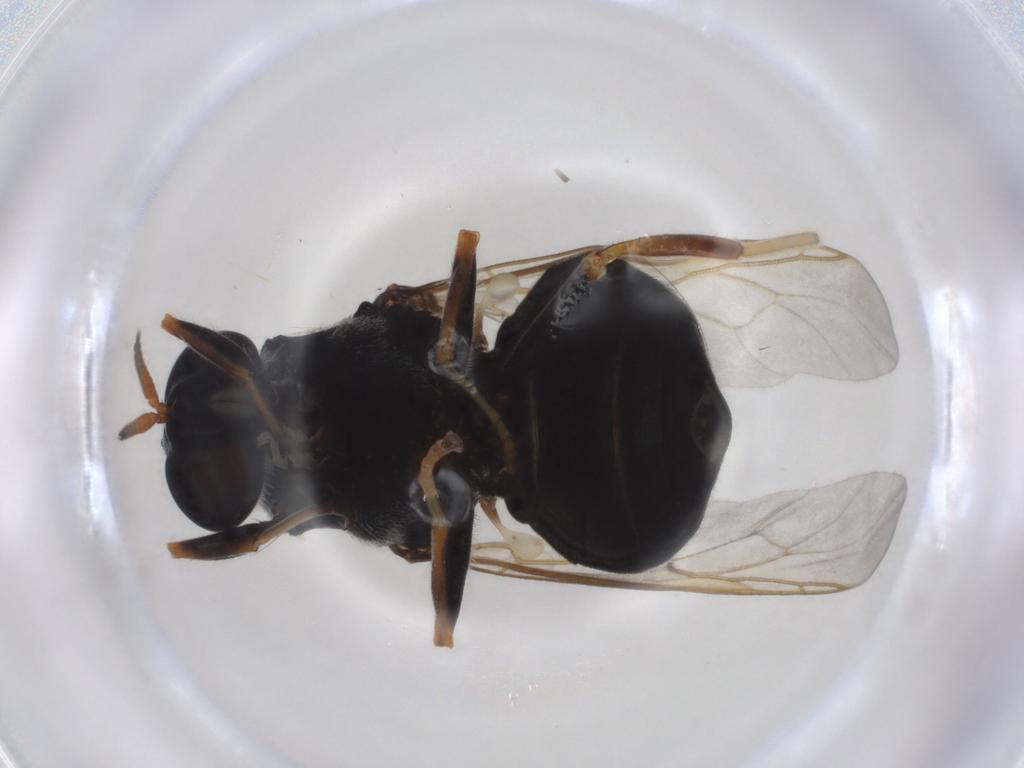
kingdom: Animalia
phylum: Arthropoda
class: Insecta
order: Diptera
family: Stratiomyidae
